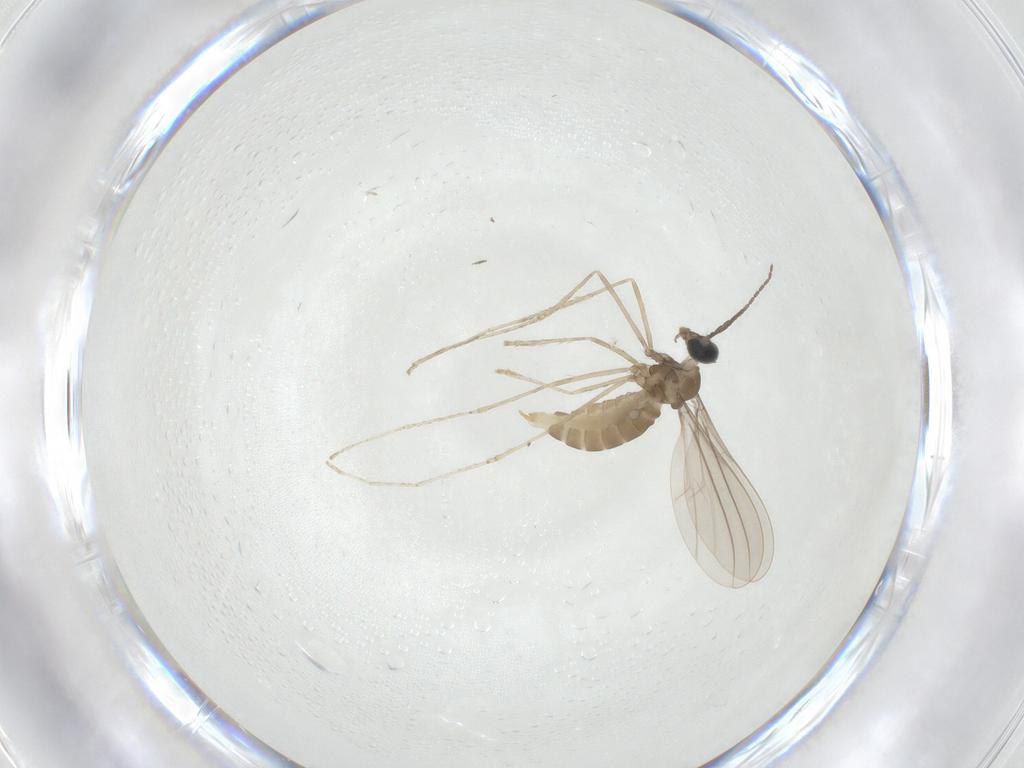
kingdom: Animalia
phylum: Arthropoda
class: Insecta
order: Diptera
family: Cecidomyiidae
